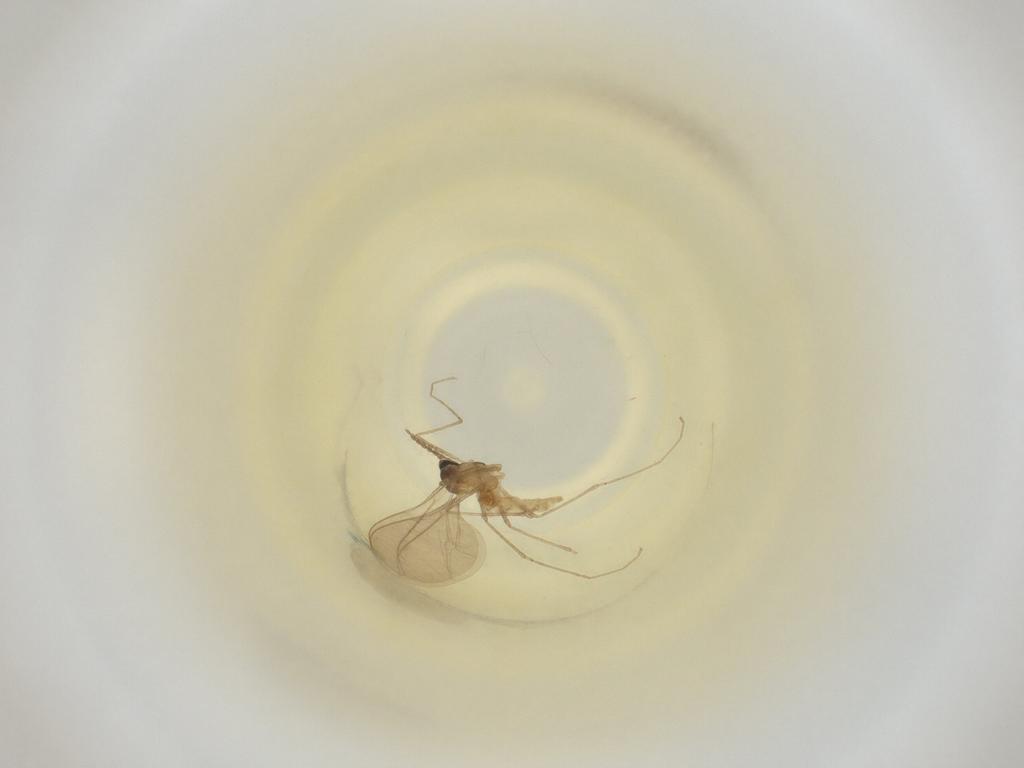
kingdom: Animalia
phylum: Arthropoda
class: Insecta
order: Diptera
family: Cecidomyiidae
